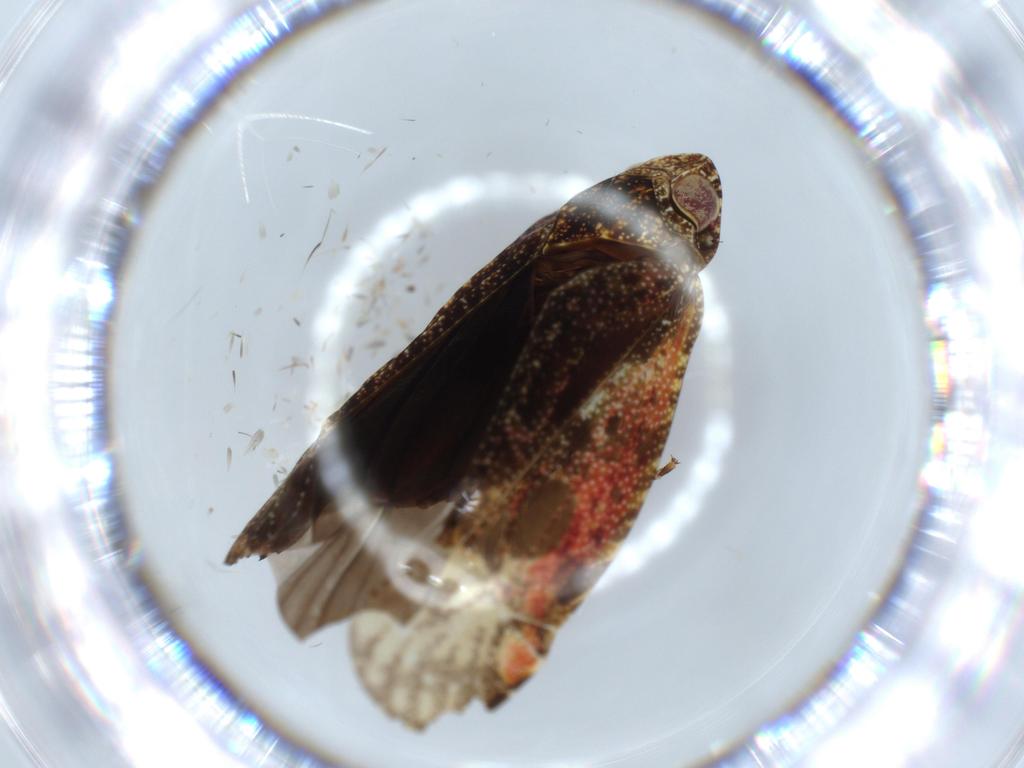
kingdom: Animalia
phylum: Arthropoda
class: Insecta
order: Hemiptera
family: Achilidae
